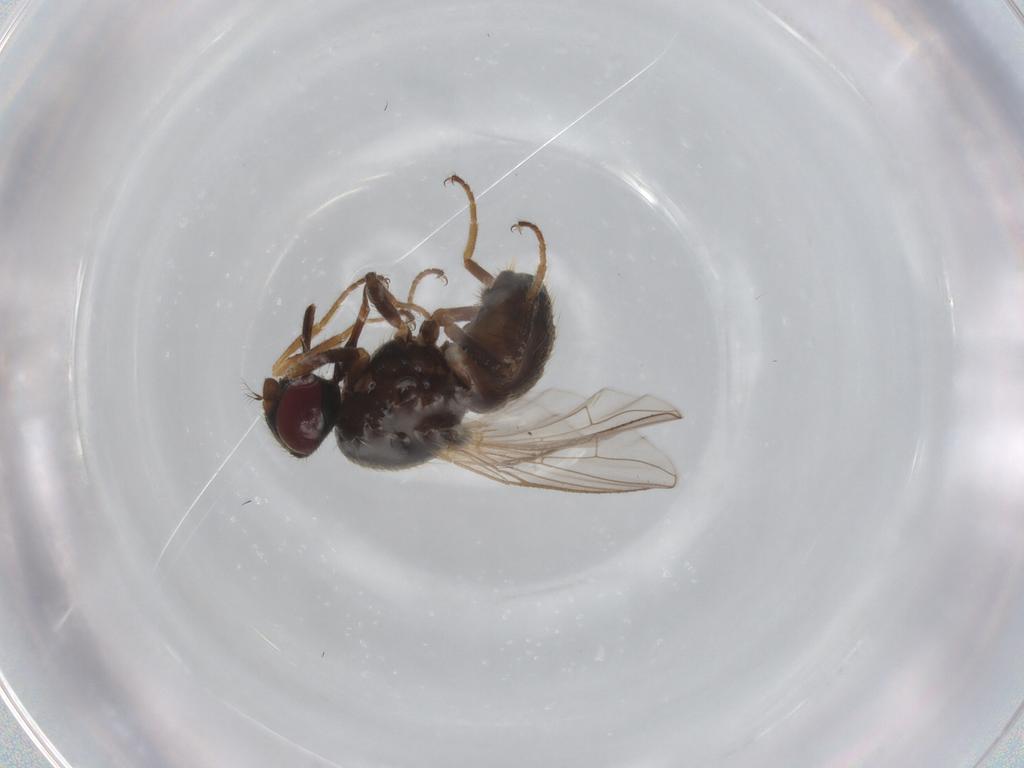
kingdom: Animalia
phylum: Arthropoda
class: Insecta
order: Diptera
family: Muscidae
